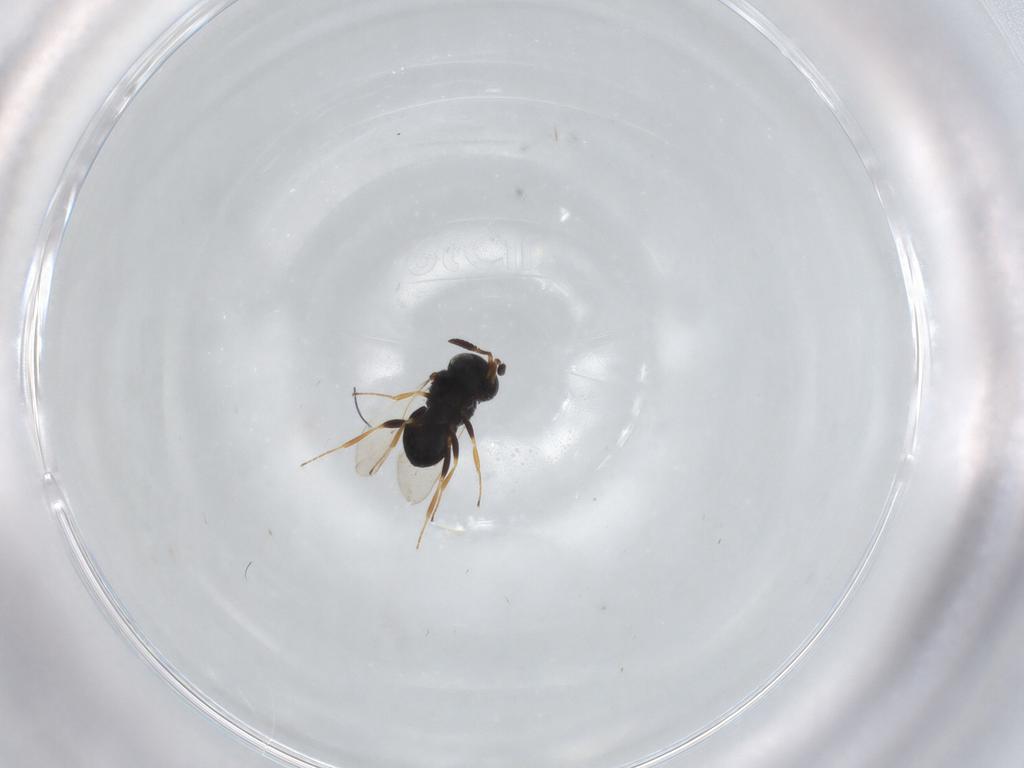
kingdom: Animalia
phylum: Arthropoda
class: Insecta
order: Coleoptera
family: Curculionidae
